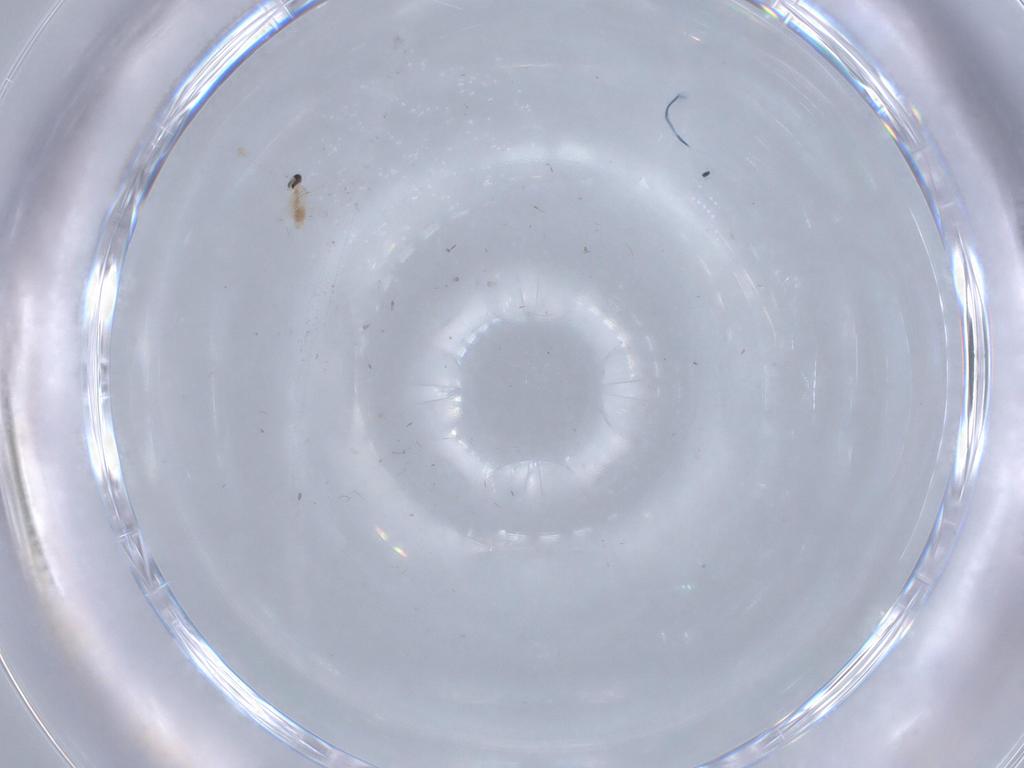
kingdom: Animalia
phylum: Arthropoda
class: Insecta
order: Diptera
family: Cecidomyiidae
